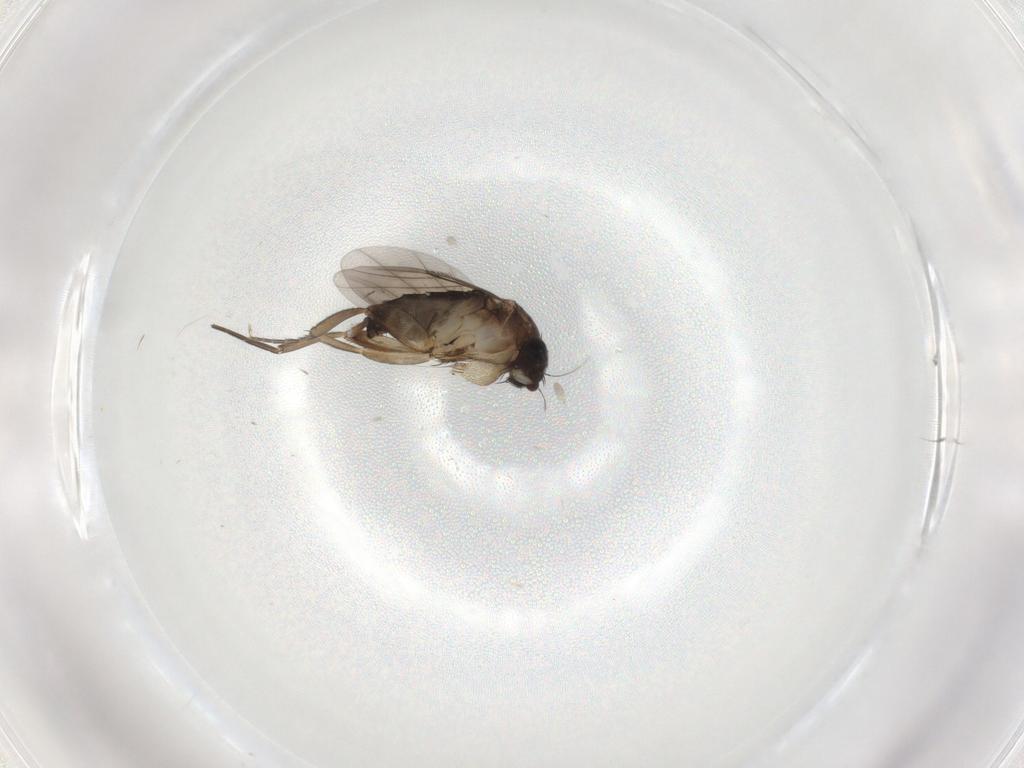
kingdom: Animalia
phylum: Arthropoda
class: Insecta
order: Diptera
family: Phoridae
